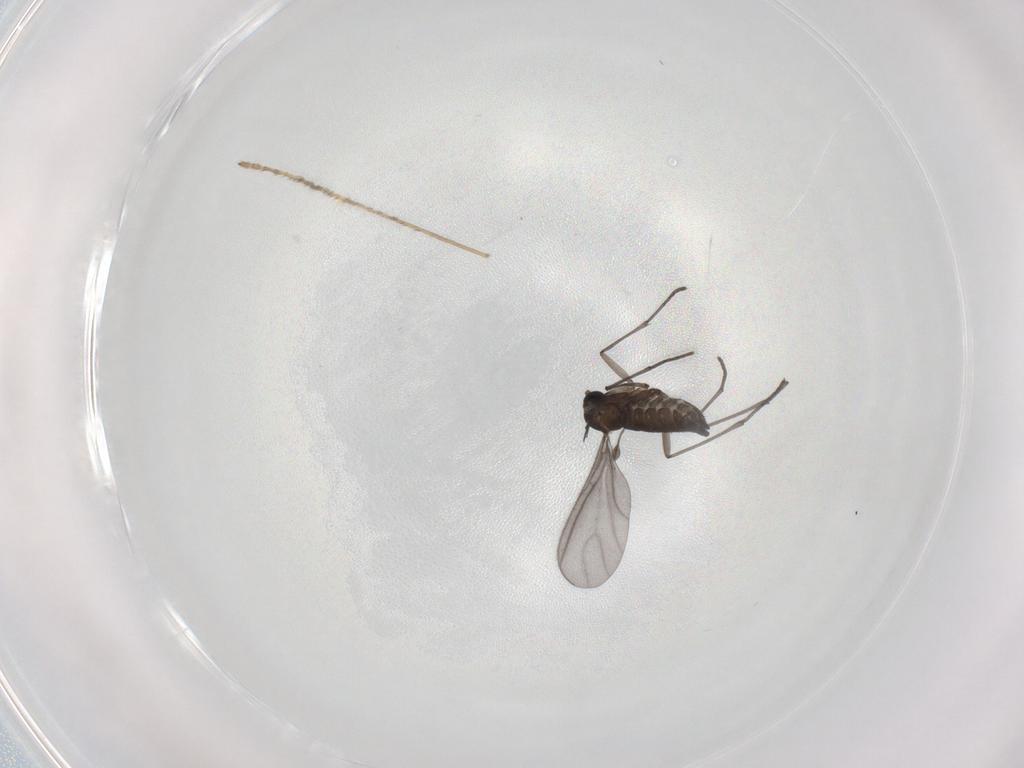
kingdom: Animalia
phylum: Arthropoda
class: Insecta
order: Diptera
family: Sciaridae
